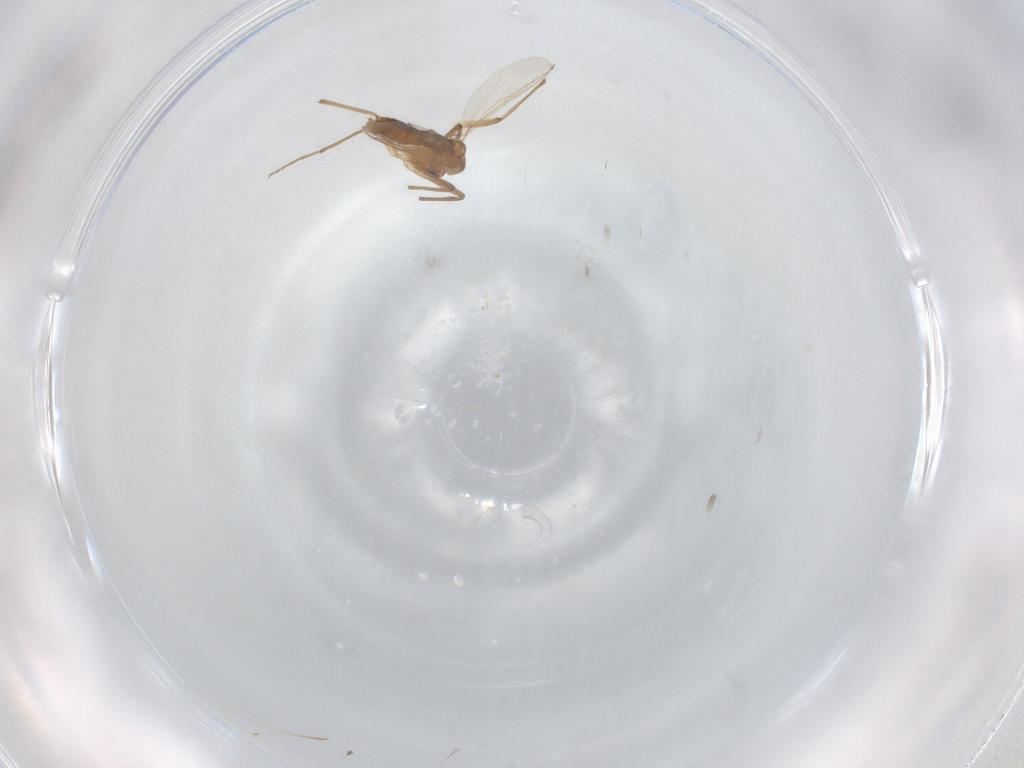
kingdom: Animalia
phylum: Arthropoda
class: Insecta
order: Diptera
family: Chironomidae
